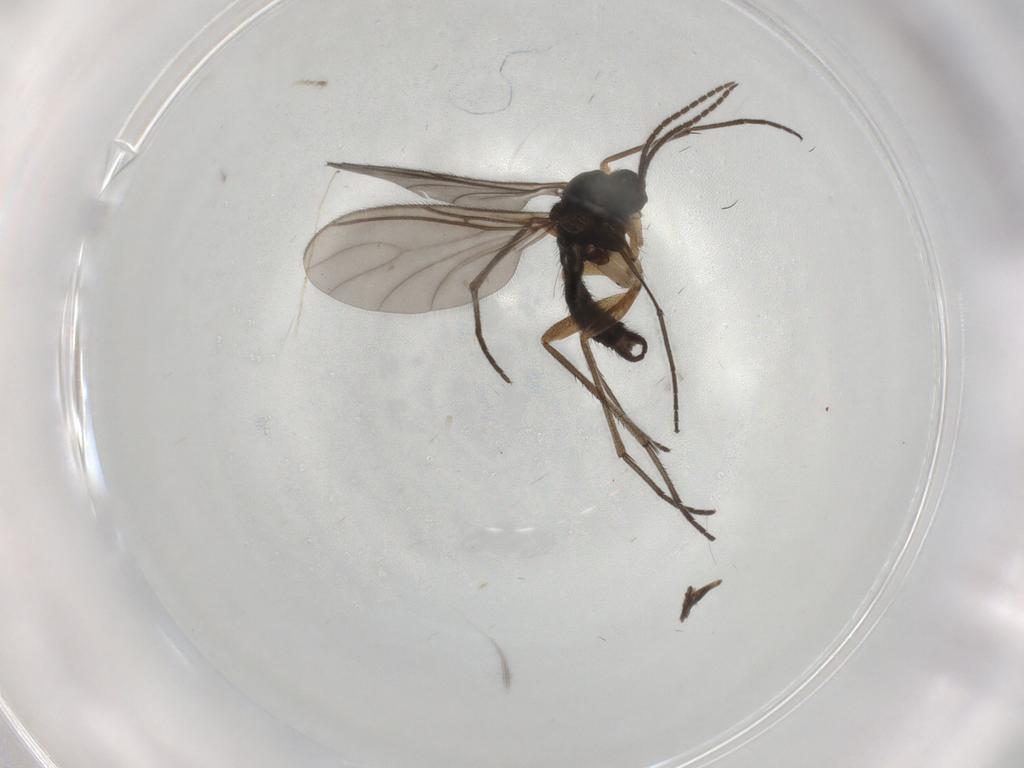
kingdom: Animalia
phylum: Arthropoda
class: Insecta
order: Diptera
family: Sciaridae
